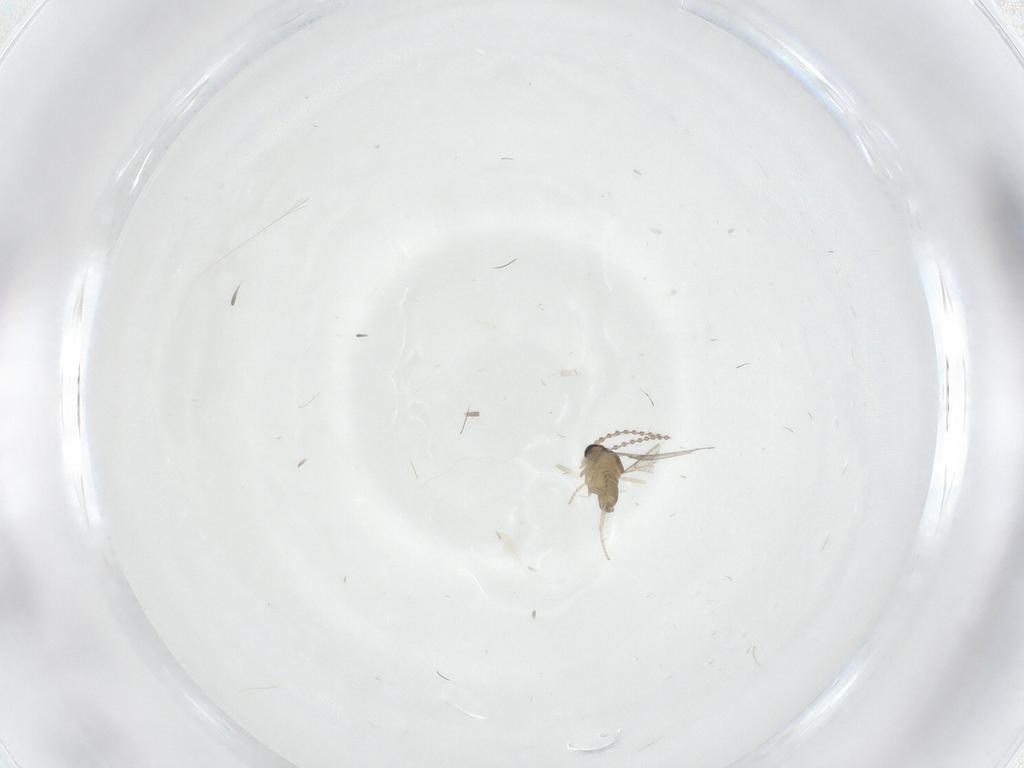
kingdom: Animalia
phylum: Arthropoda
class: Insecta
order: Diptera
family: Cecidomyiidae
